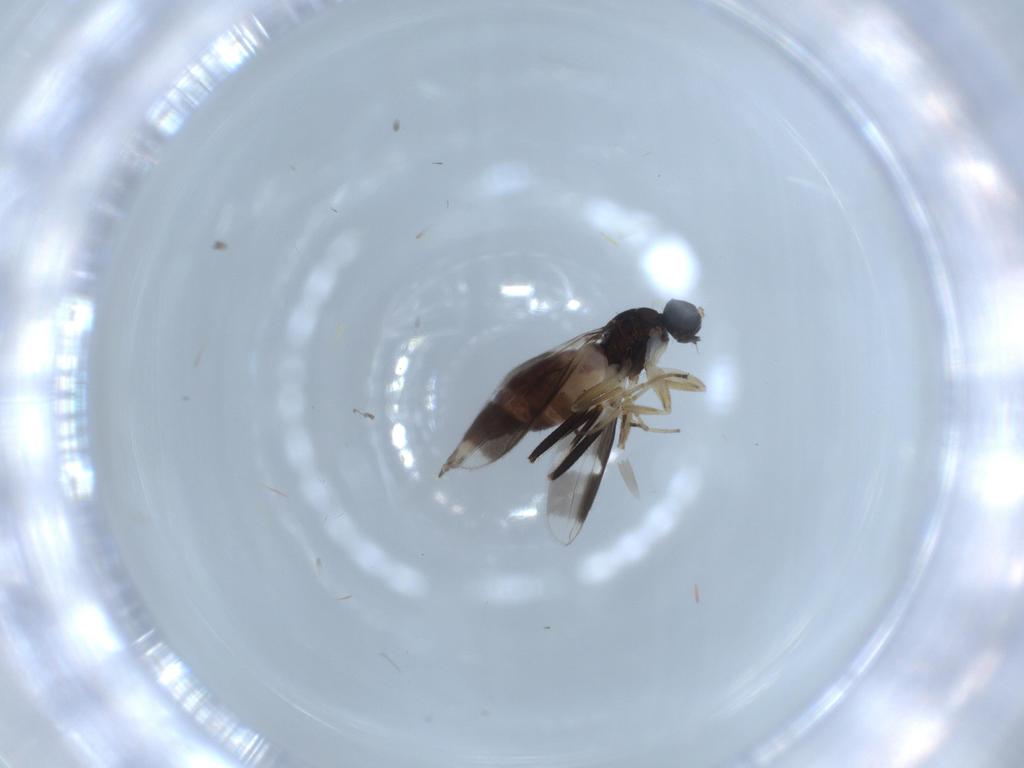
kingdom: Animalia
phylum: Arthropoda
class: Insecta
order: Diptera
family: Hybotidae
